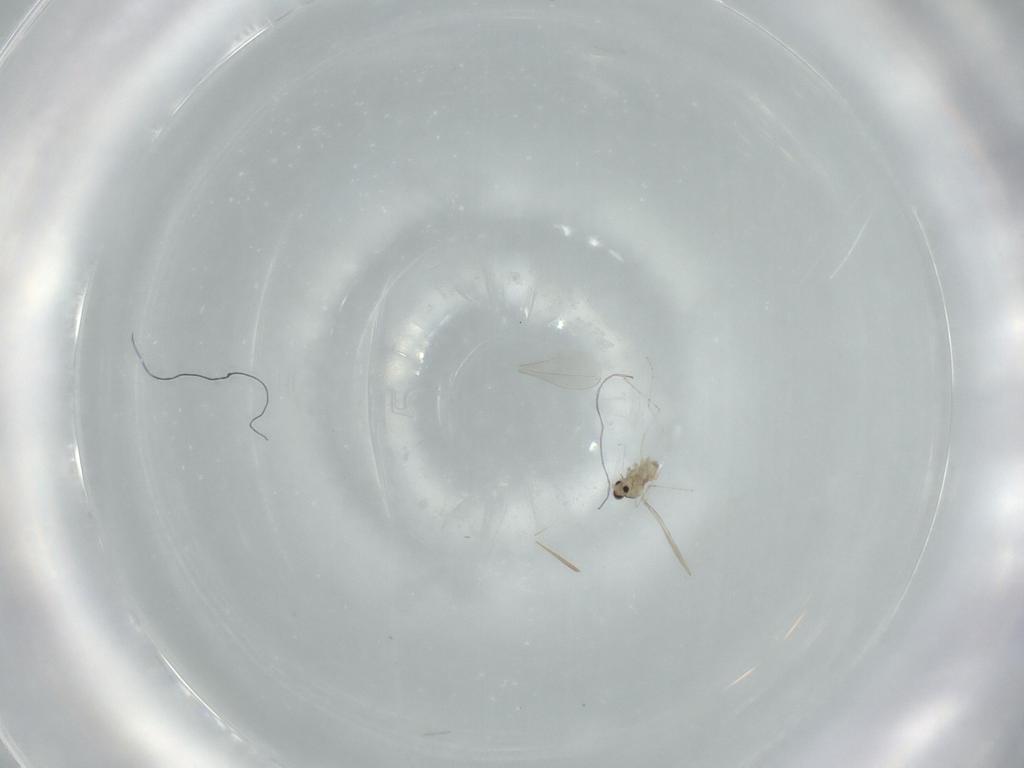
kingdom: Animalia
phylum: Arthropoda
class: Insecta
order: Diptera
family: Cecidomyiidae
